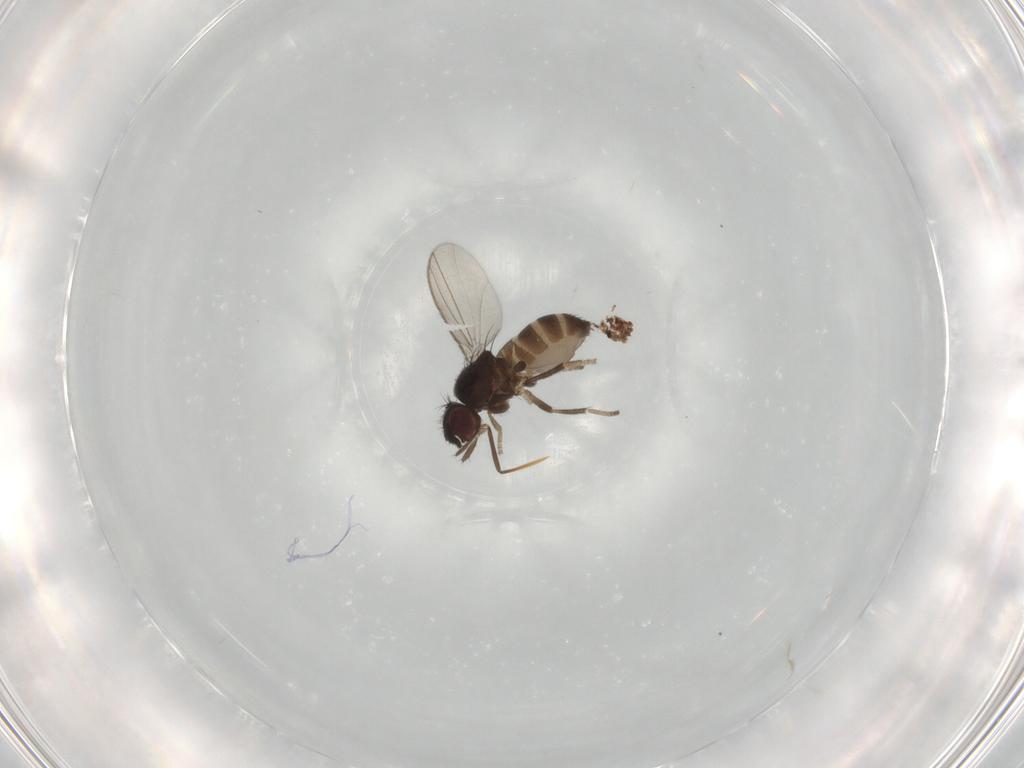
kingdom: Animalia
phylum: Arthropoda
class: Insecta
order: Diptera
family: Milichiidae
